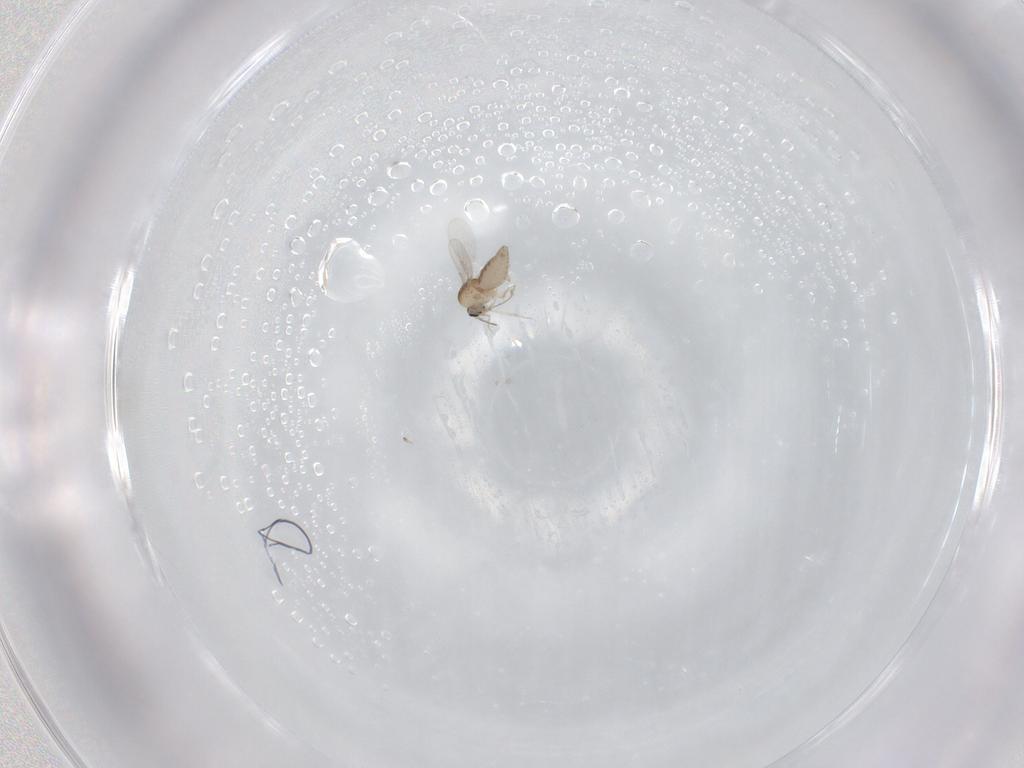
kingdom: Animalia
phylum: Arthropoda
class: Insecta
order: Diptera
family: Ceratopogonidae
